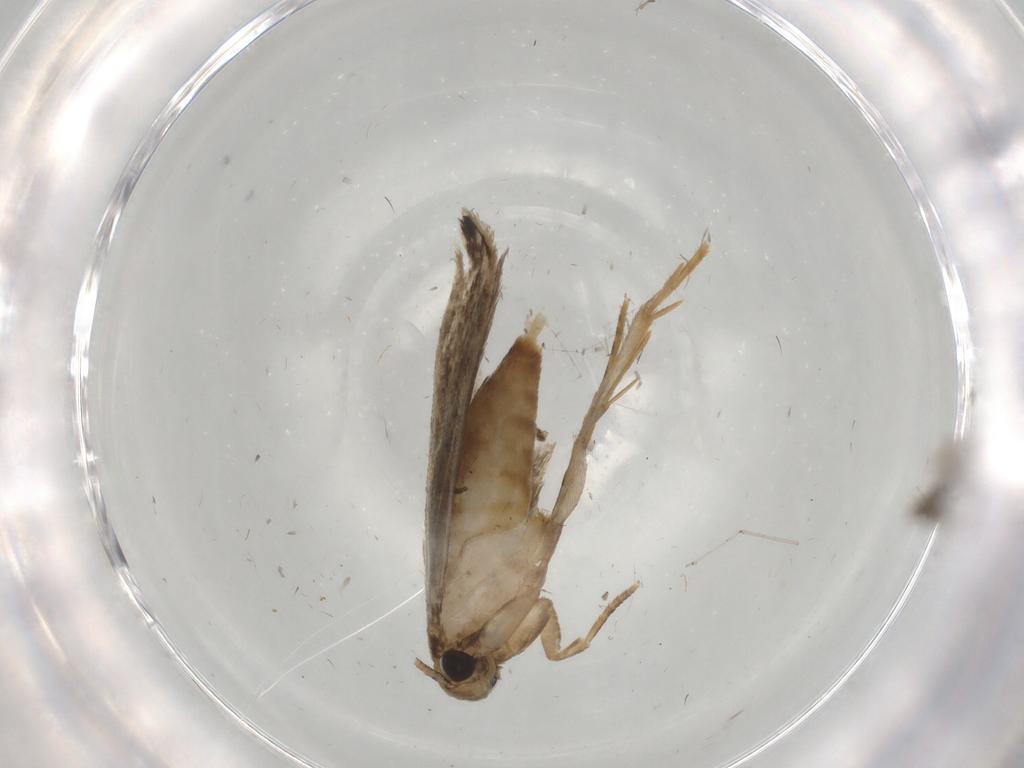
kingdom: Animalia
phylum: Arthropoda
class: Insecta
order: Lepidoptera
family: Tineidae
